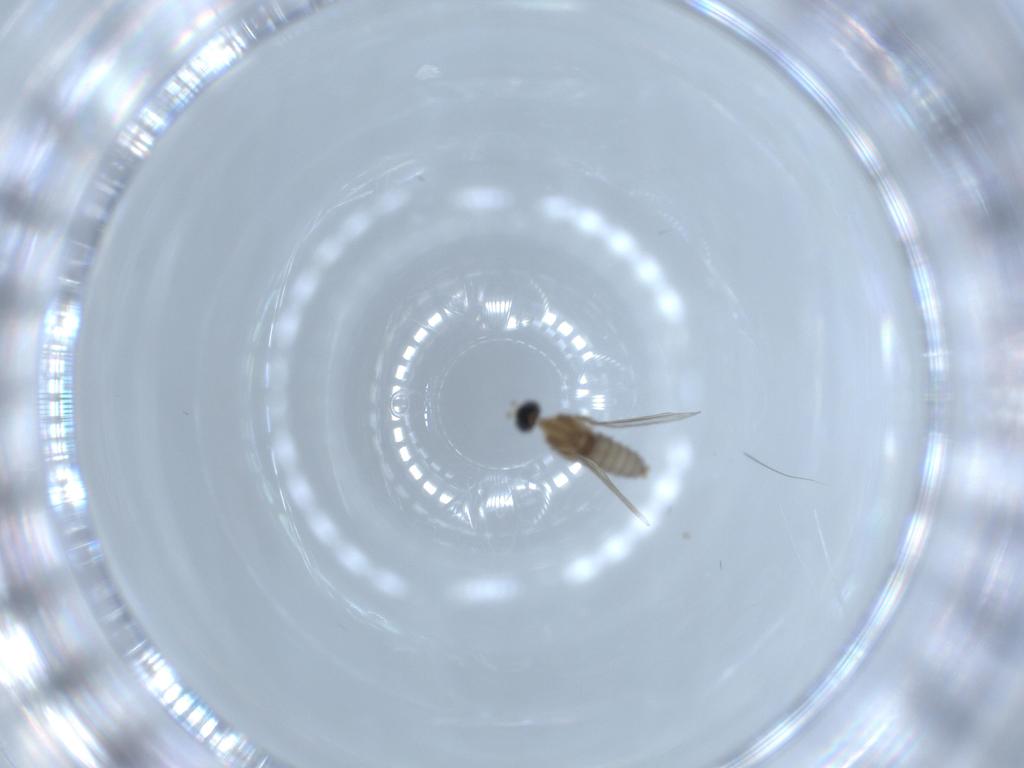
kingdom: Animalia
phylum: Arthropoda
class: Insecta
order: Diptera
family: Cecidomyiidae
